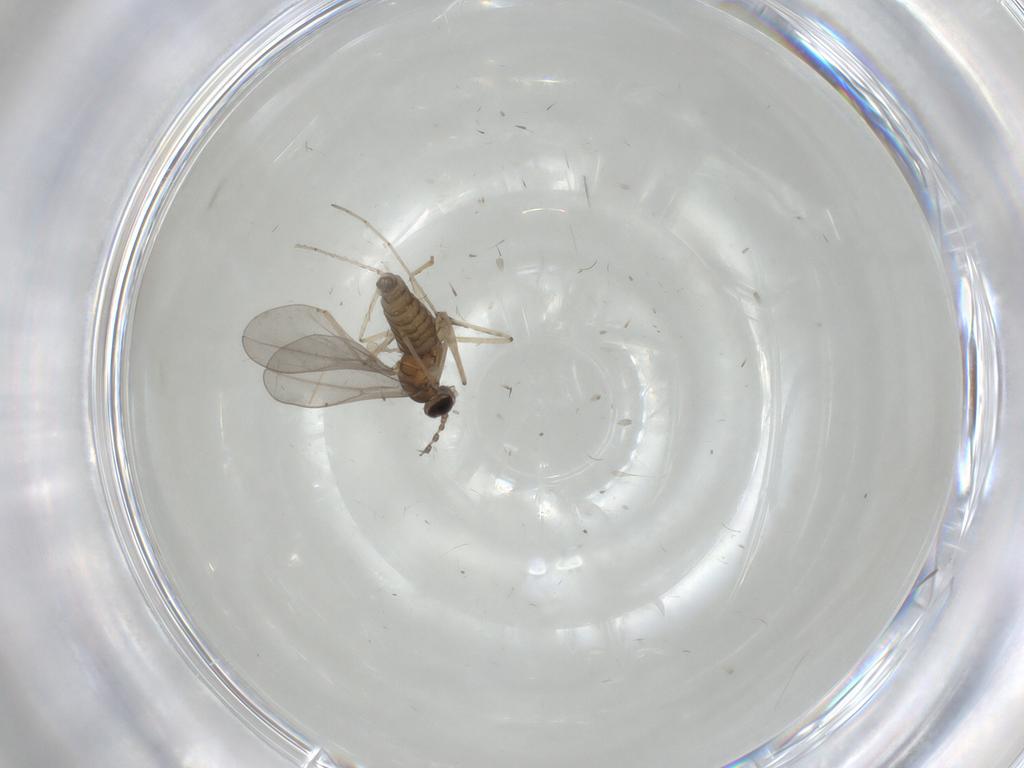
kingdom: Animalia
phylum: Arthropoda
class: Insecta
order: Diptera
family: Cecidomyiidae
